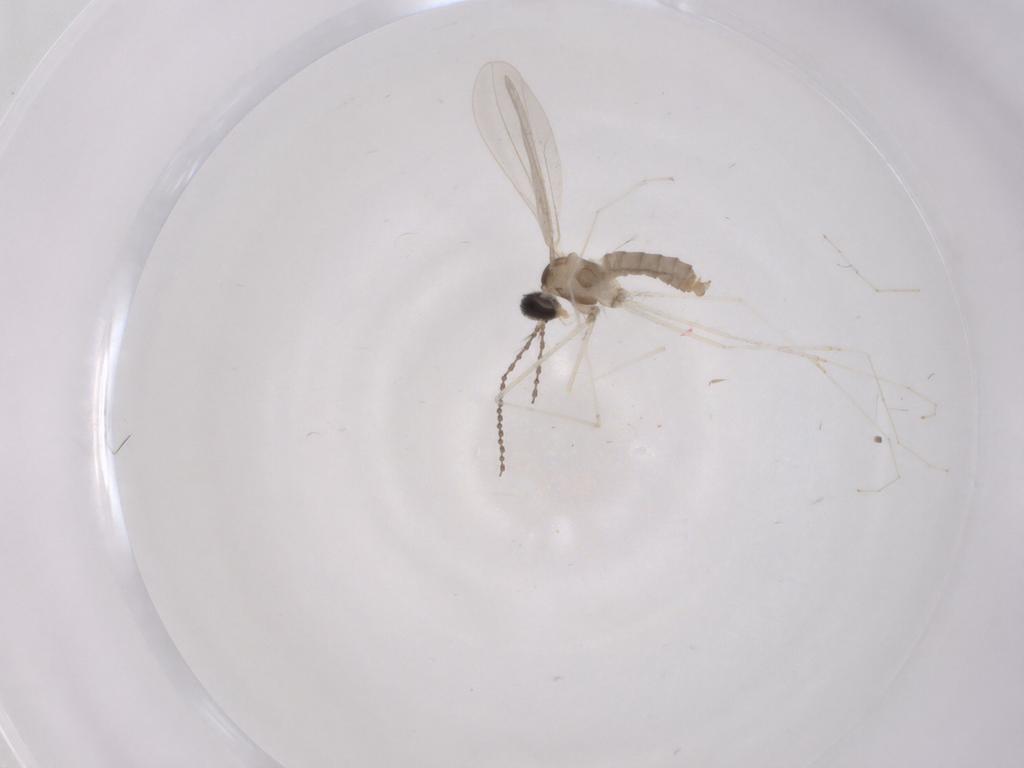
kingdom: Animalia
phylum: Arthropoda
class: Insecta
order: Diptera
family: Cecidomyiidae
